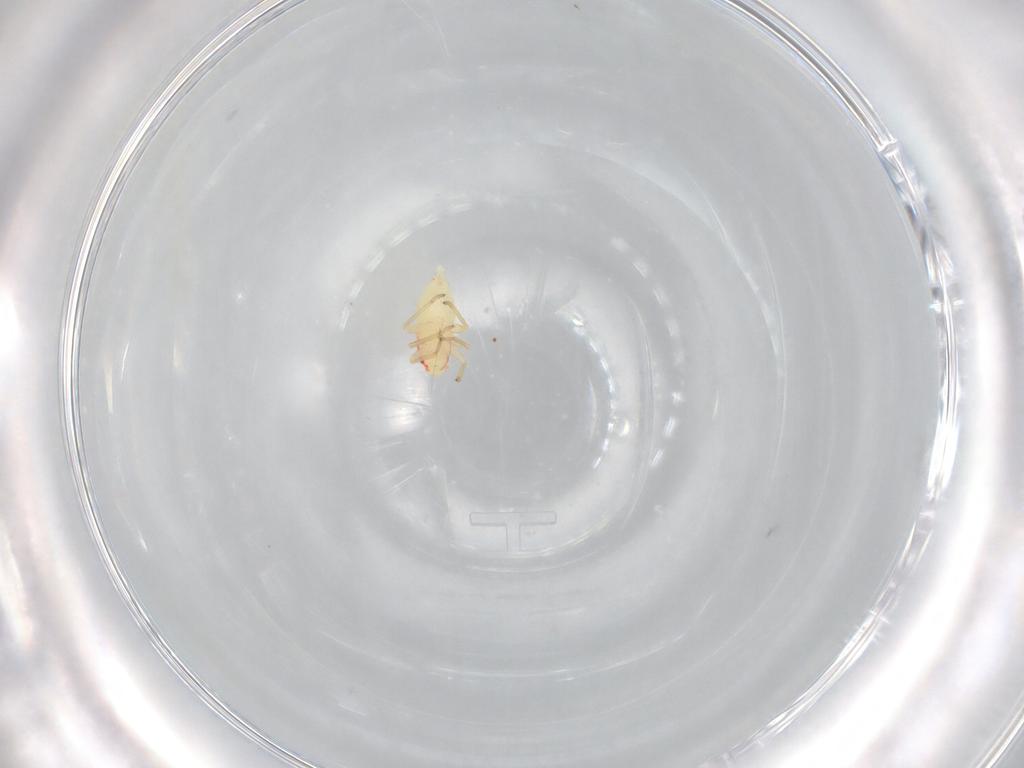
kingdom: Animalia
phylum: Arthropoda
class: Insecta
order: Hemiptera
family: Miridae
